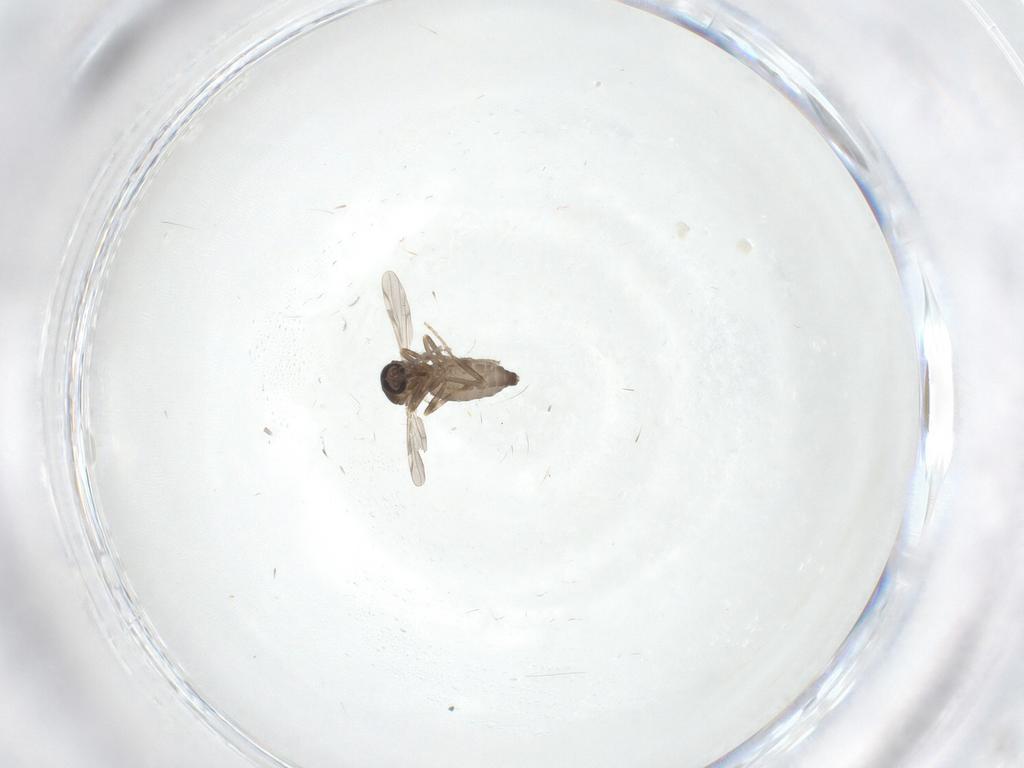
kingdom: Animalia
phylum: Arthropoda
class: Insecta
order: Diptera
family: Ceratopogonidae
